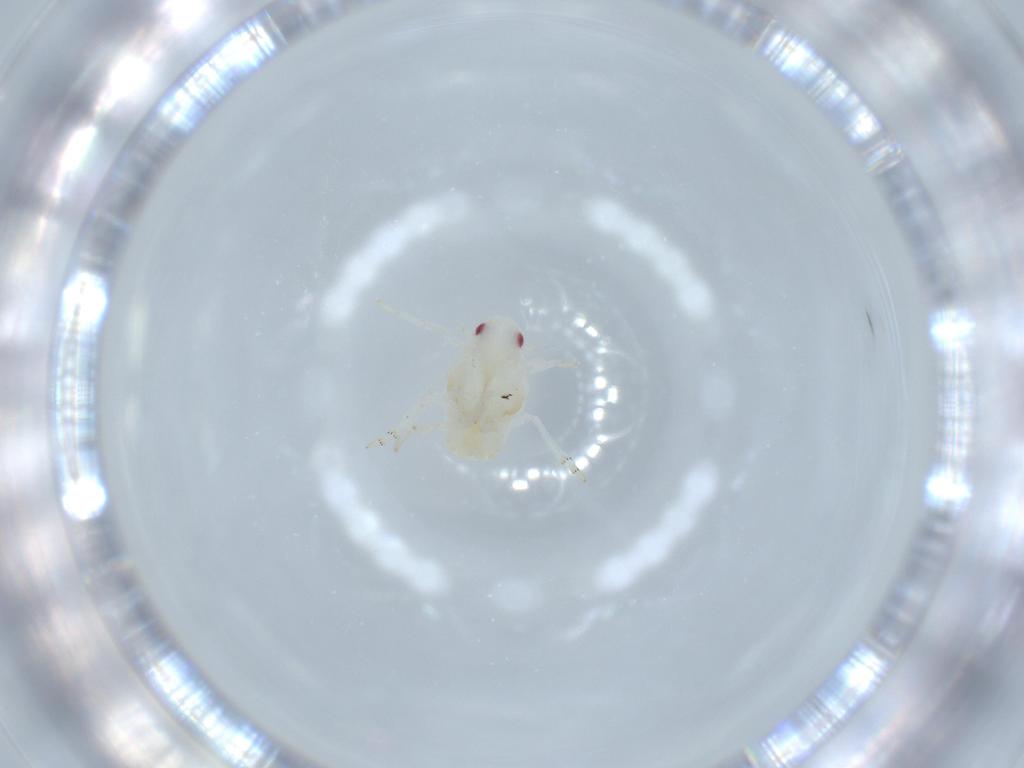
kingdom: Animalia
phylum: Arthropoda
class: Insecta
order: Hemiptera
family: Flatidae
